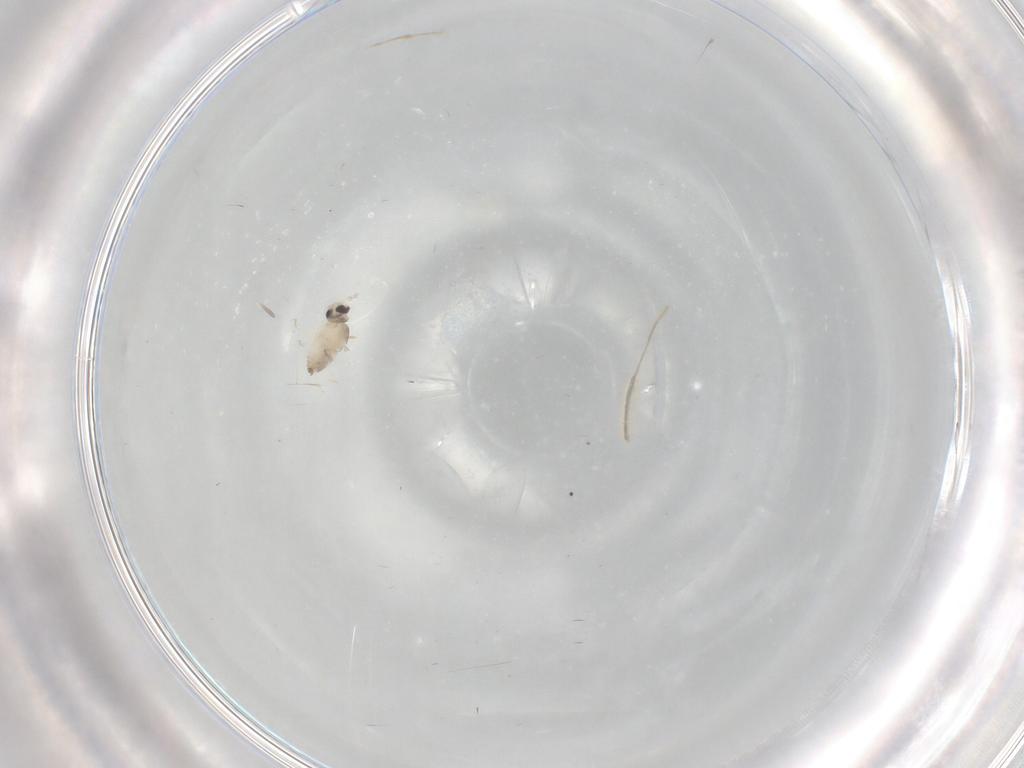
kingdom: Animalia
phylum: Arthropoda
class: Insecta
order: Diptera
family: Cecidomyiidae
